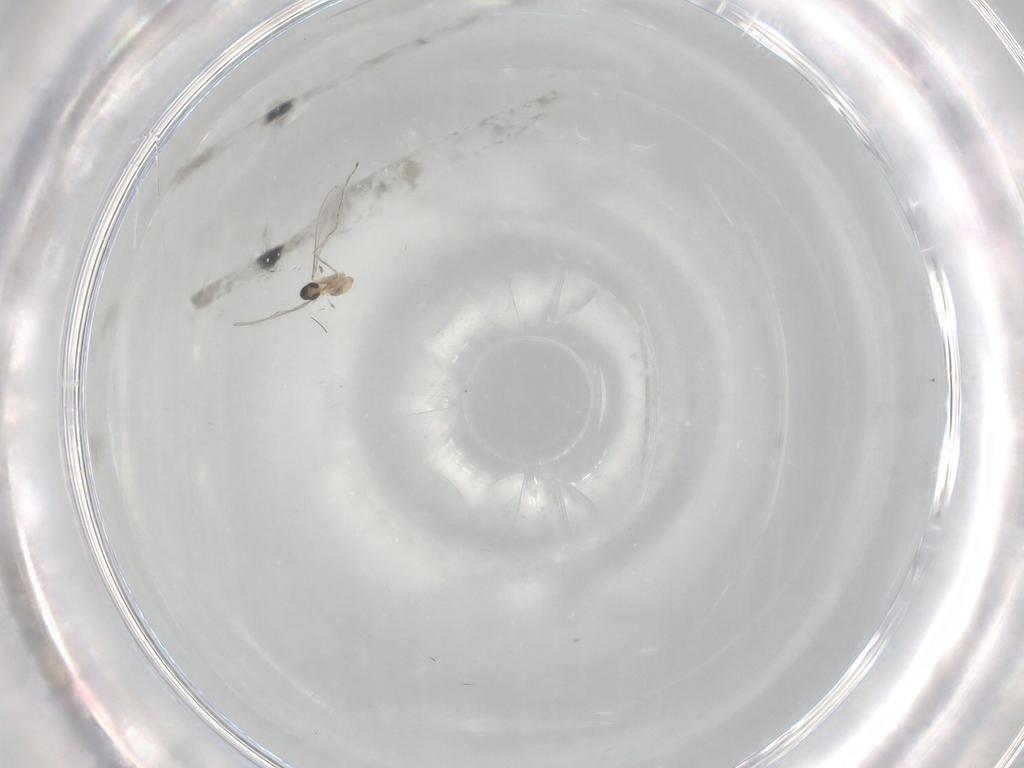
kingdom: Animalia
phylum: Arthropoda
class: Insecta
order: Diptera
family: Cecidomyiidae
